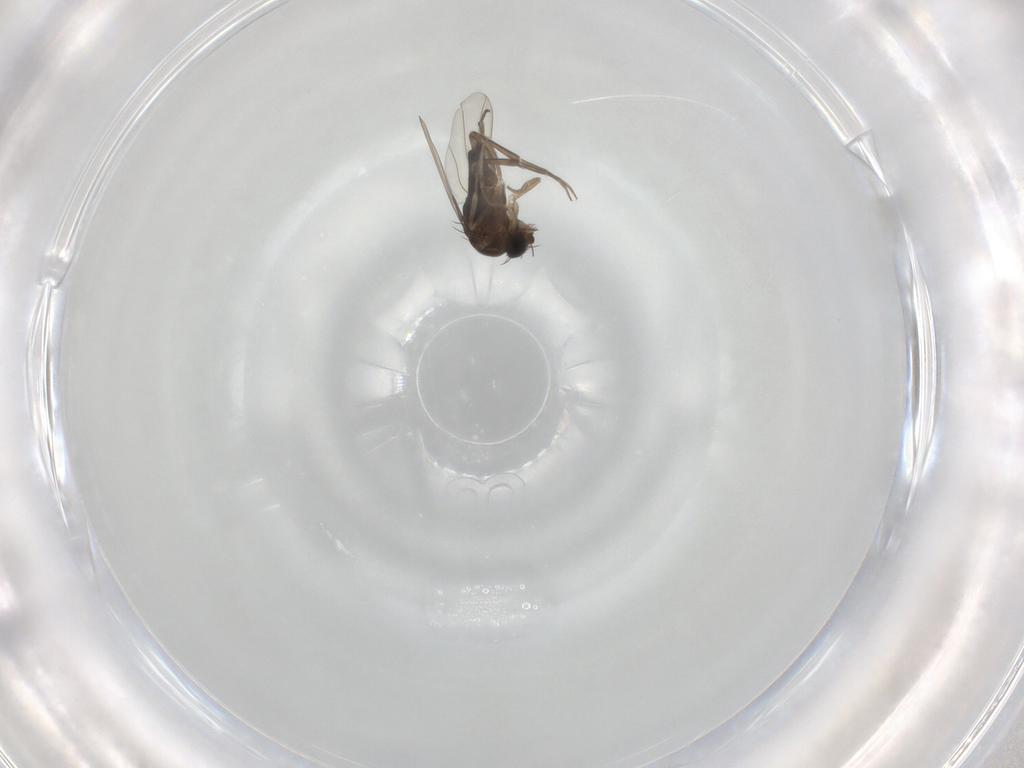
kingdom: Animalia
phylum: Arthropoda
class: Insecta
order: Diptera
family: Phoridae
